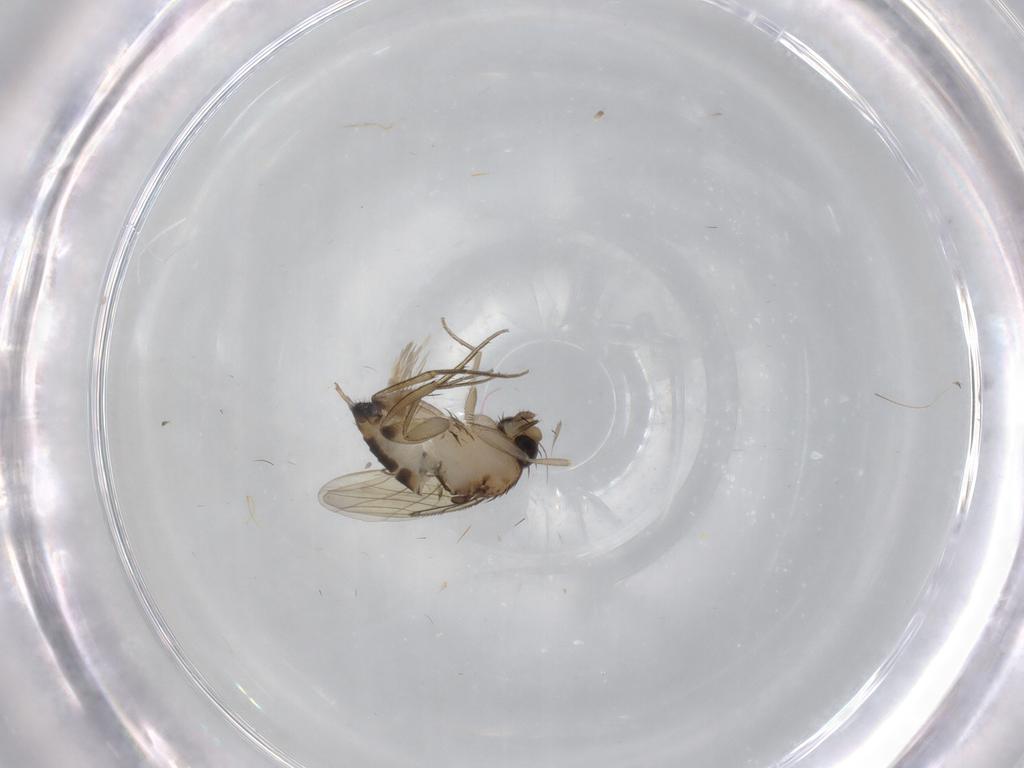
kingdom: Animalia
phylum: Arthropoda
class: Insecta
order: Diptera
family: Phoridae
